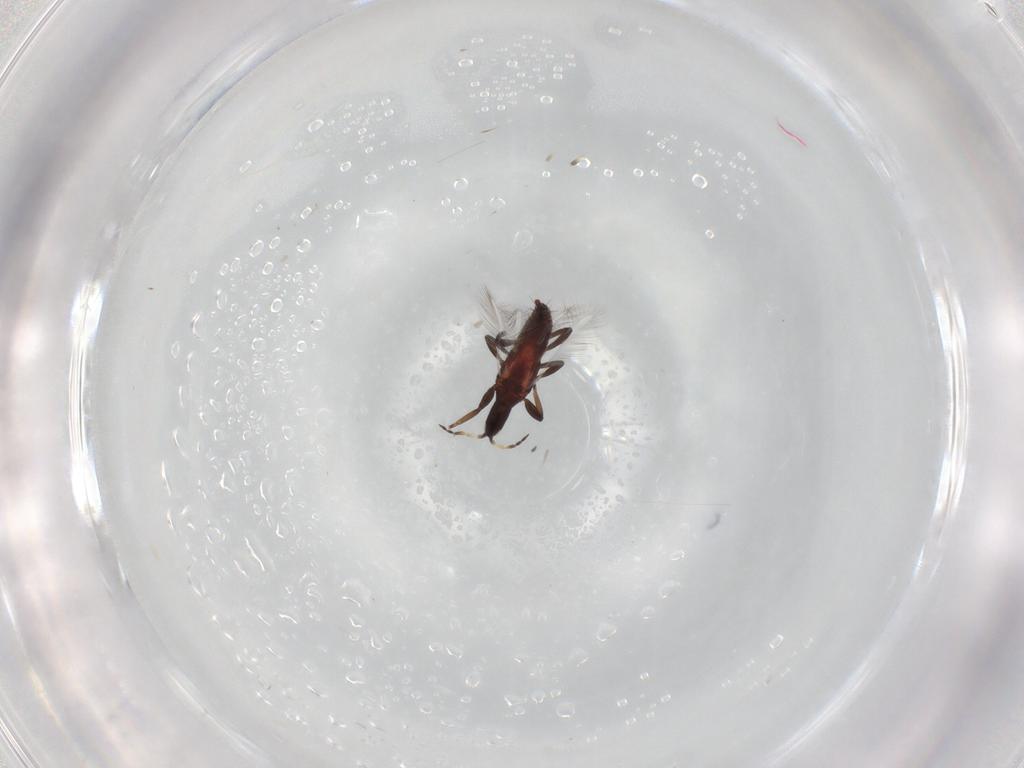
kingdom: Animalia
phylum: Arthropoda
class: Insecta
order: Thysanoptera
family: Phlaeothripidae
